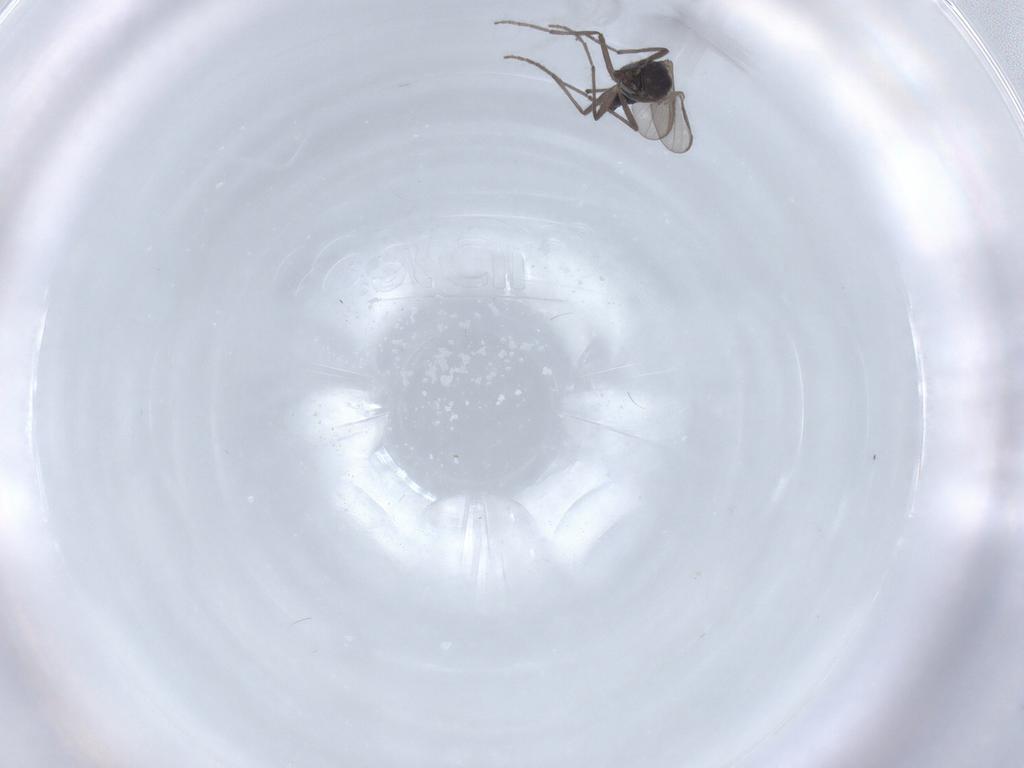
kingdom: Animalia
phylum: Arthropoda
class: Insecta
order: Diptera
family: Chironomidae
